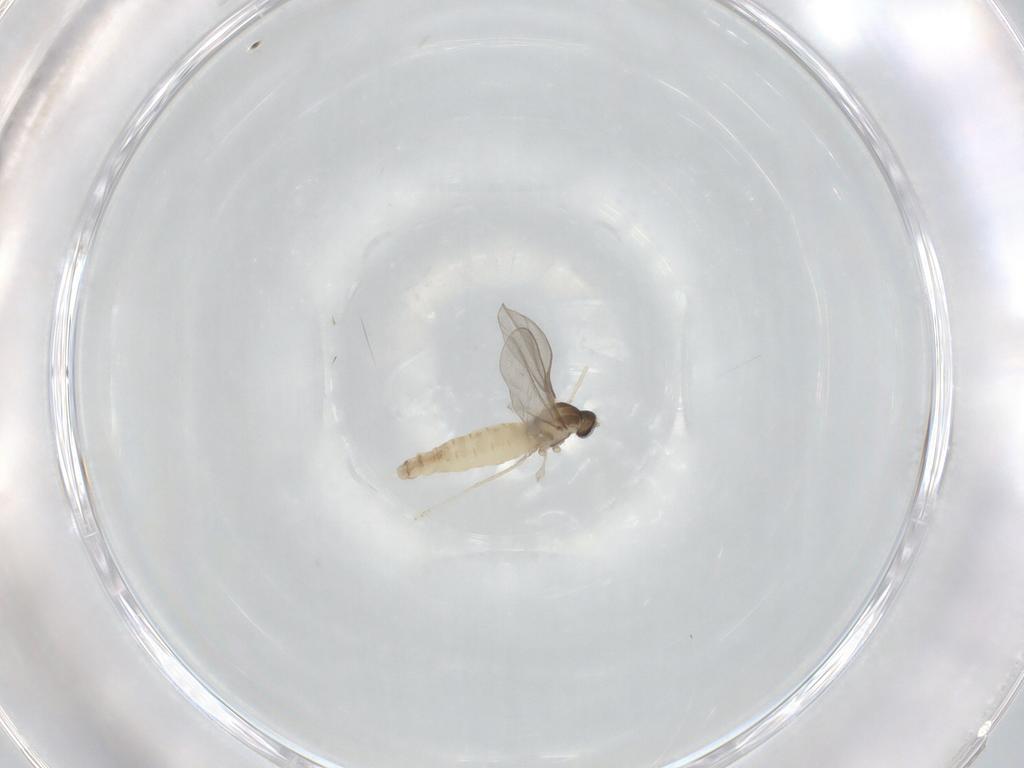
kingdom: Animalia
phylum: Arthropoda
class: Insecta
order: Diptera
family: Cecidomyiidae
